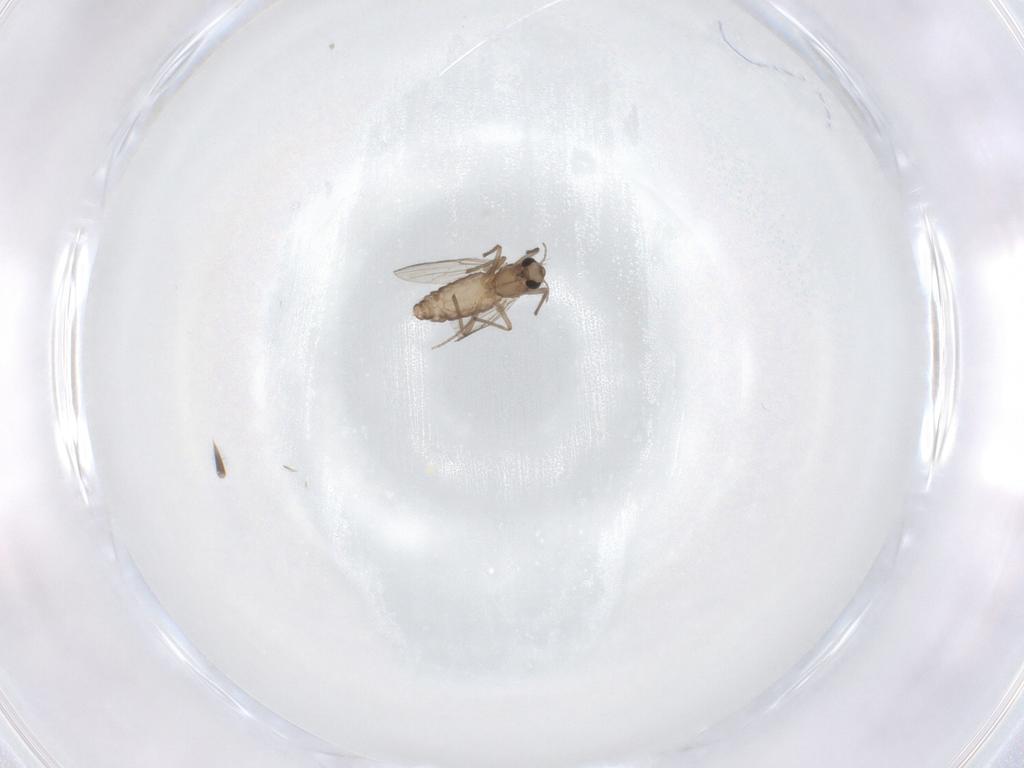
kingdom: Animalia
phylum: Arthropoda
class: Insecta
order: Diptera
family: Chironomidae
